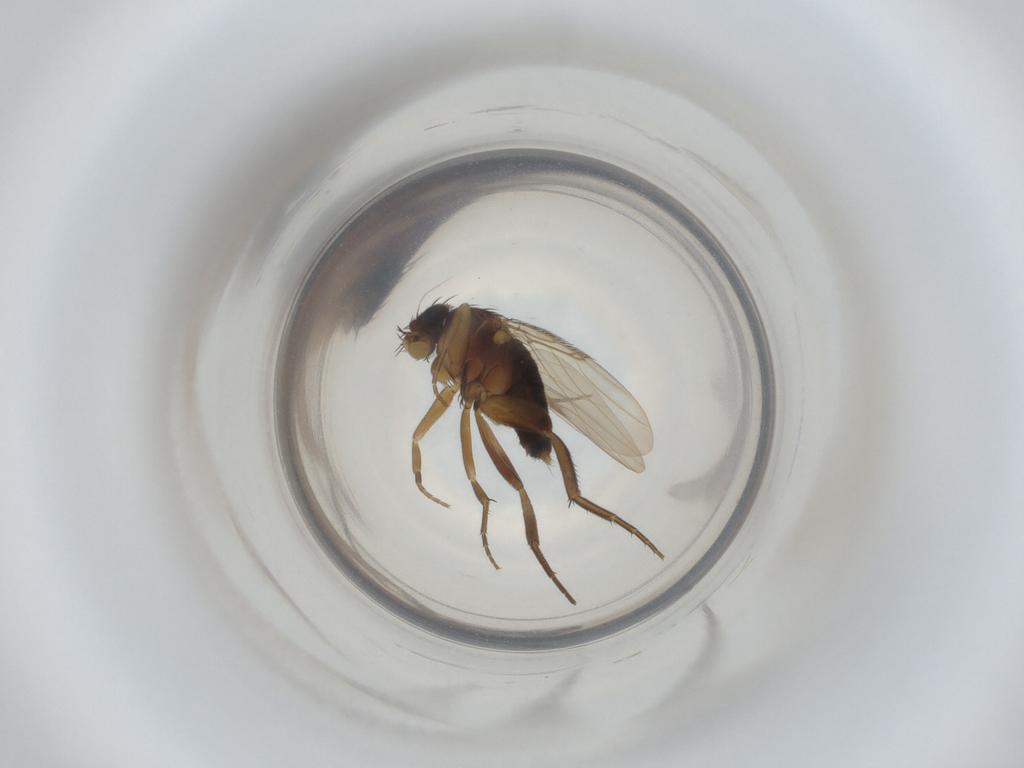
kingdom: Animalia
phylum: Arthropoda
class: Insecta
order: Diptera
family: Phoridae
